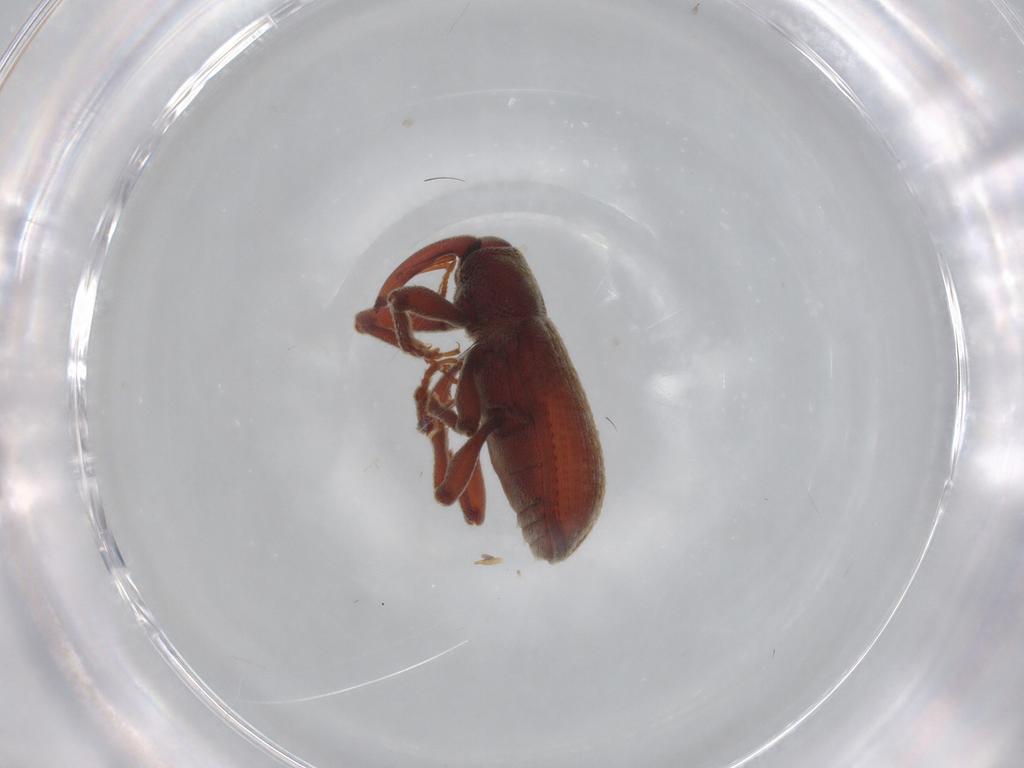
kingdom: Animalia
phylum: Arthropoda
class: Insecta
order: Coleoptera
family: Curculionidae
